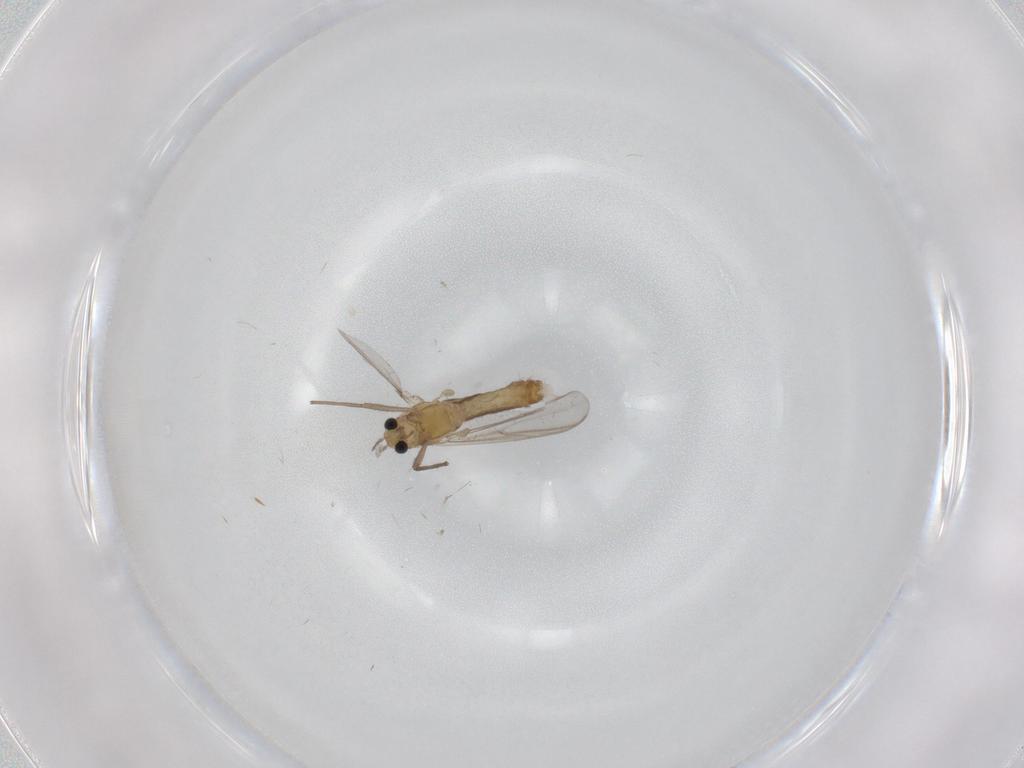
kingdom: Animalia
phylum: Arthropoda
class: Insecta
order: Diptera
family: Chironomidae
